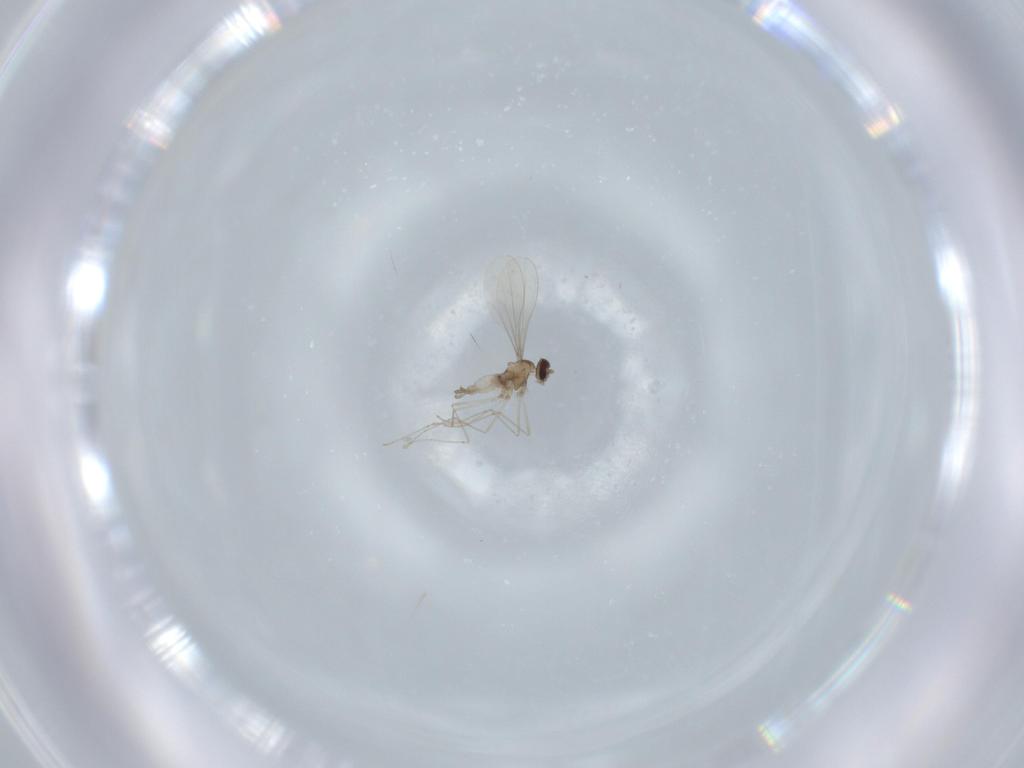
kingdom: Animalia
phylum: Arthropoda
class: Insecta
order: Diptera
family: Cecidomyiidae
